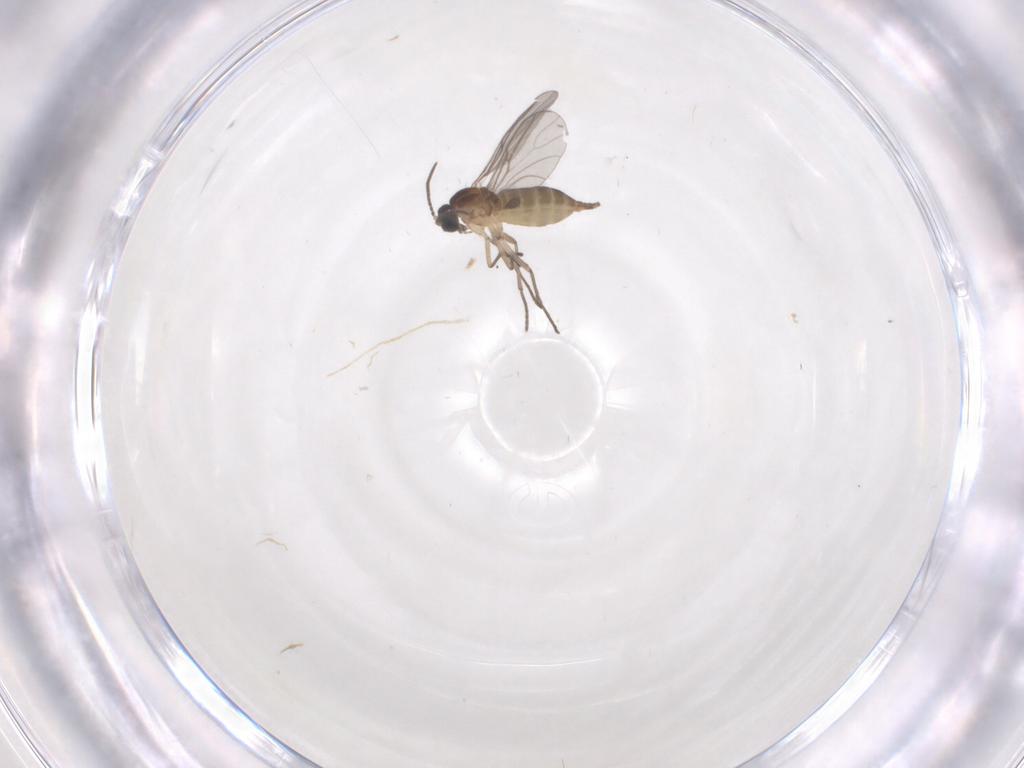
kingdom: Animalia
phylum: Arthropoda
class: Insecta
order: Diptera
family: Sciaridae
